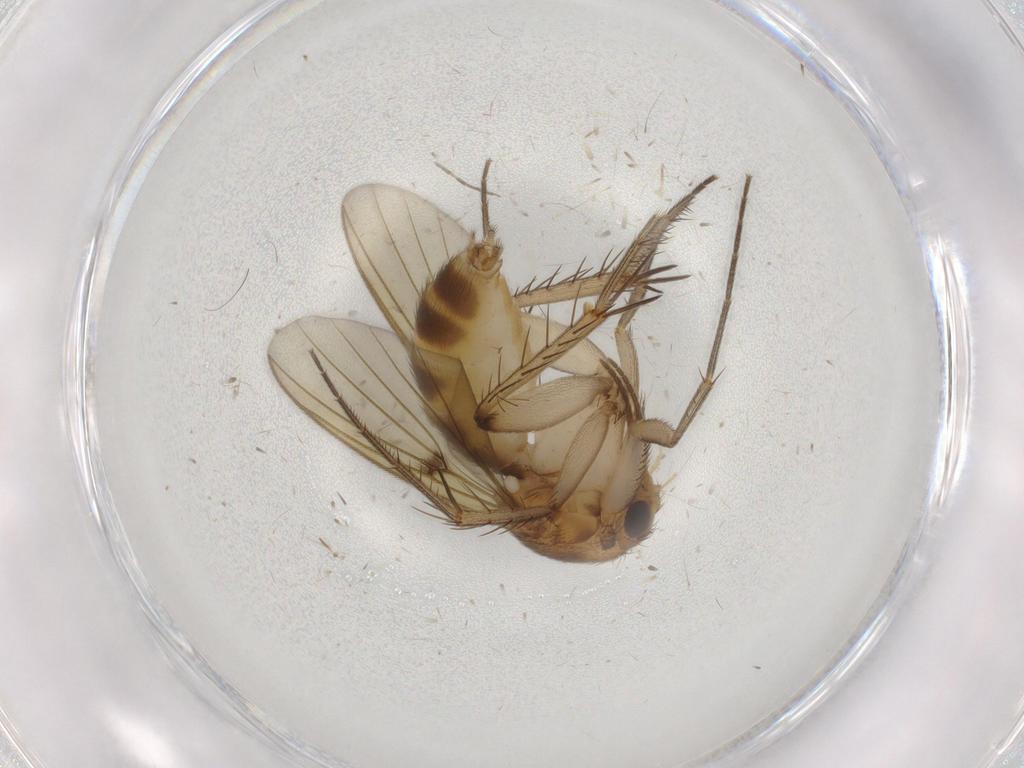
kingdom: Animalia
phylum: Arthropoda
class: Insecta
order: Diptera
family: Cecidomyiidae
